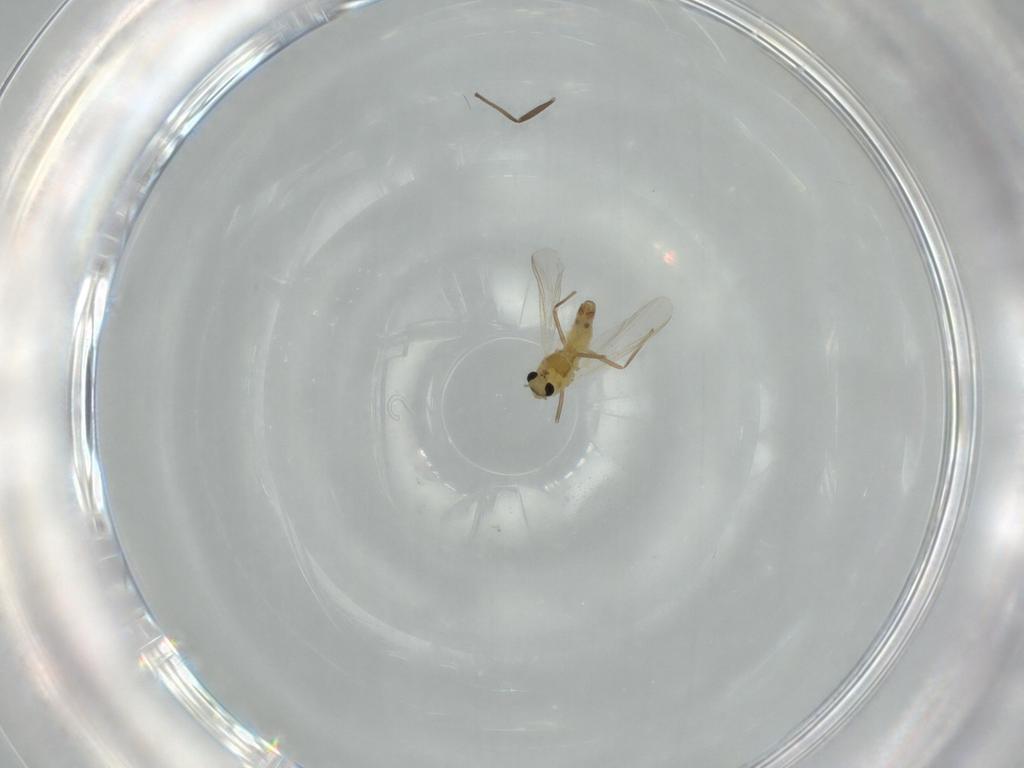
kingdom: Animalia
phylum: Arthropoda
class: Insecta
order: Diptera
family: Chironomidae
